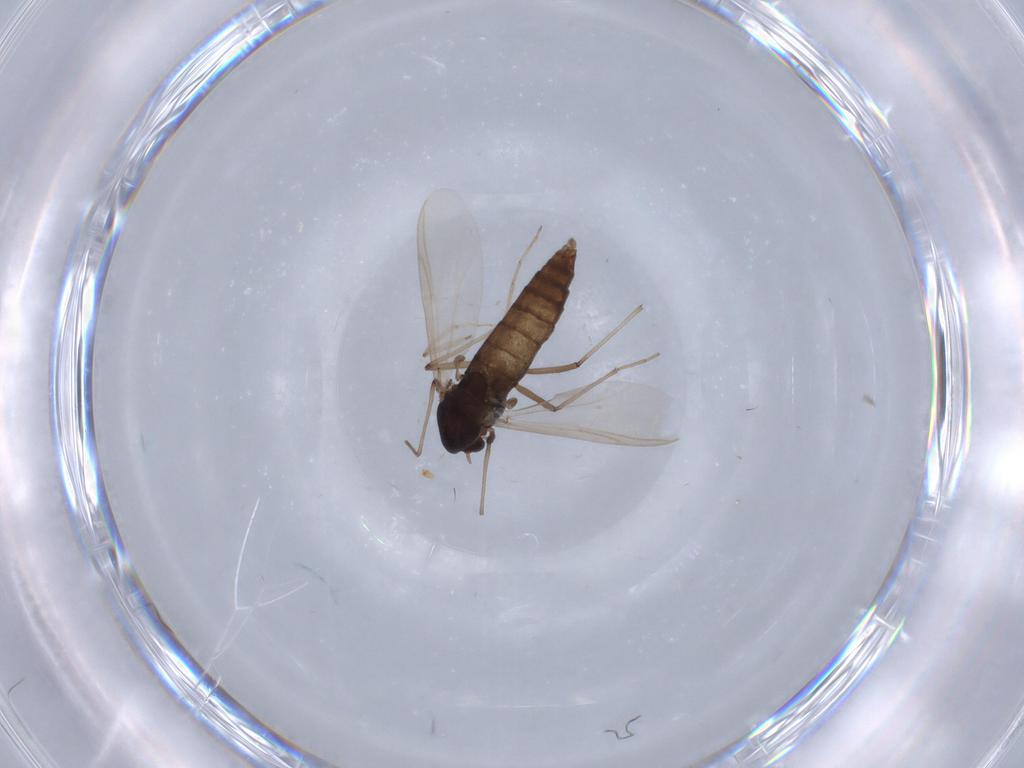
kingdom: Animalia
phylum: Arthropoda
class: Insecta
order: Diptera
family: Chironomidae
